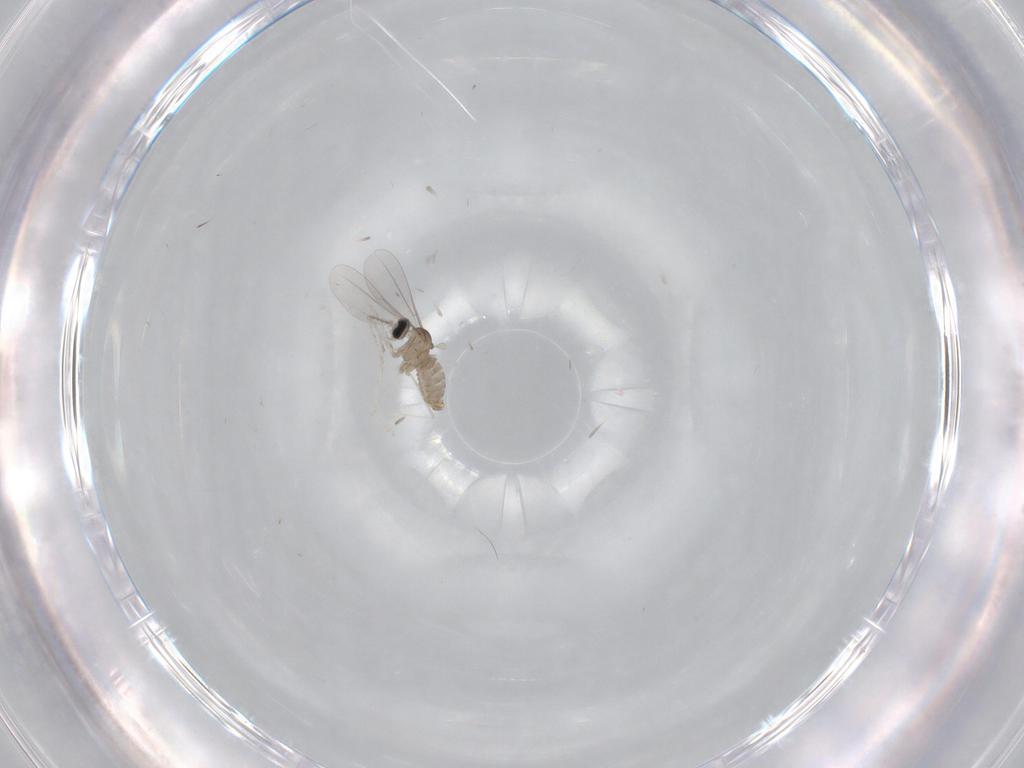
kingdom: Animalia
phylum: Arthropoda
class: Insecta
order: Diptera
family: Cecidomyiidae
